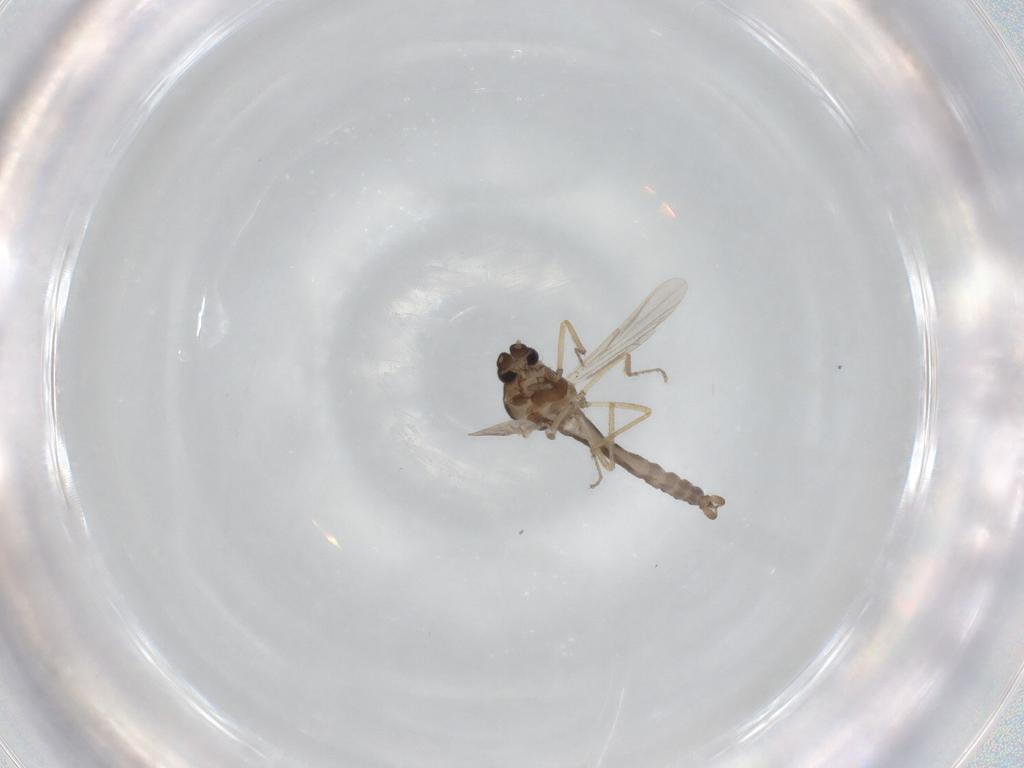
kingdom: Animalia
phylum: Arthropoda
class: Insecta
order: Diptera
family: Ceratopogonidae
